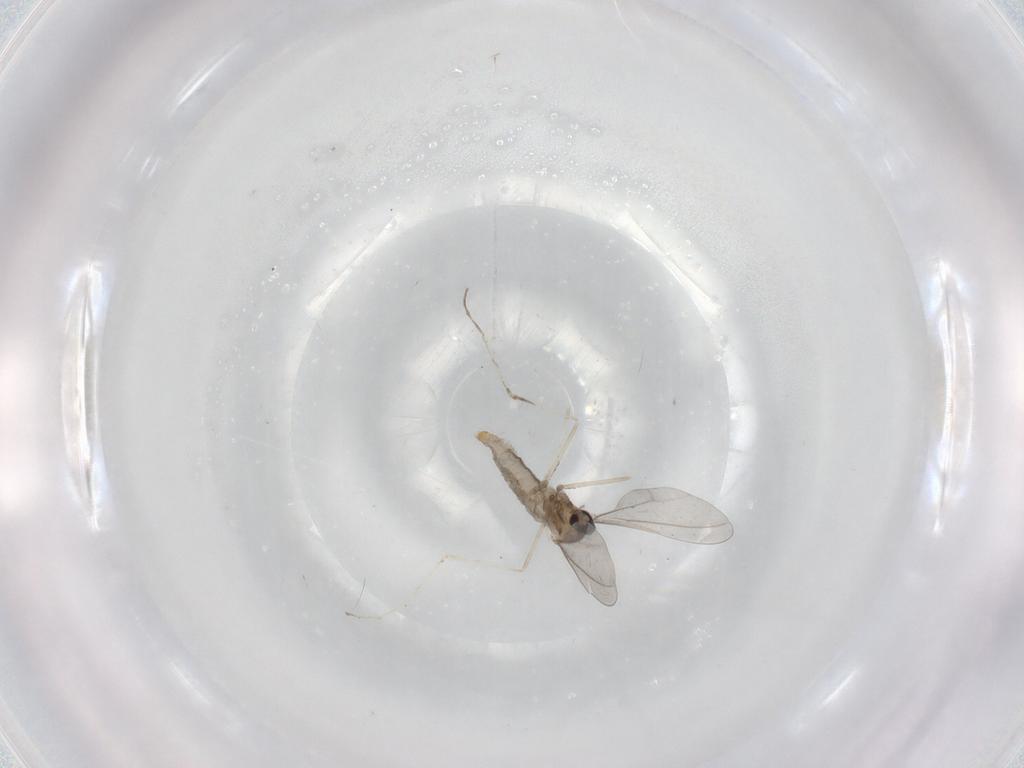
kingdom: Animalia
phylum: Arthropoda
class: Insecta
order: Diptera
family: Cecidomyiidae
